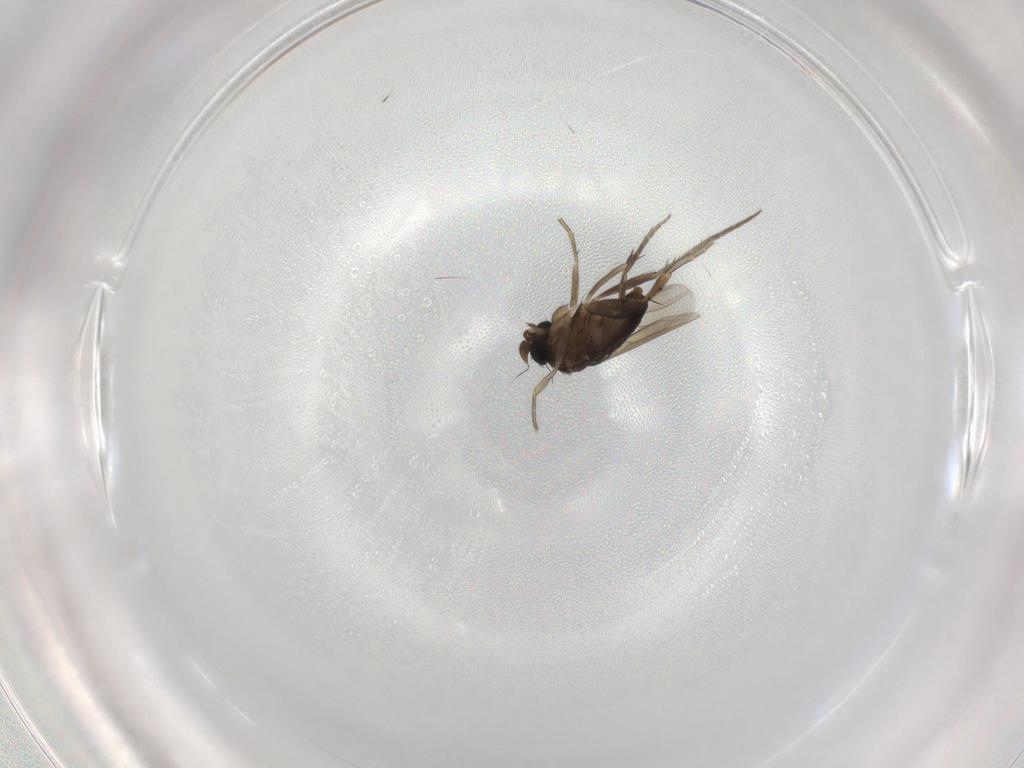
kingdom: Animalia
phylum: Arthropoda
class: Insecta
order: Diptera
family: Phoridae
